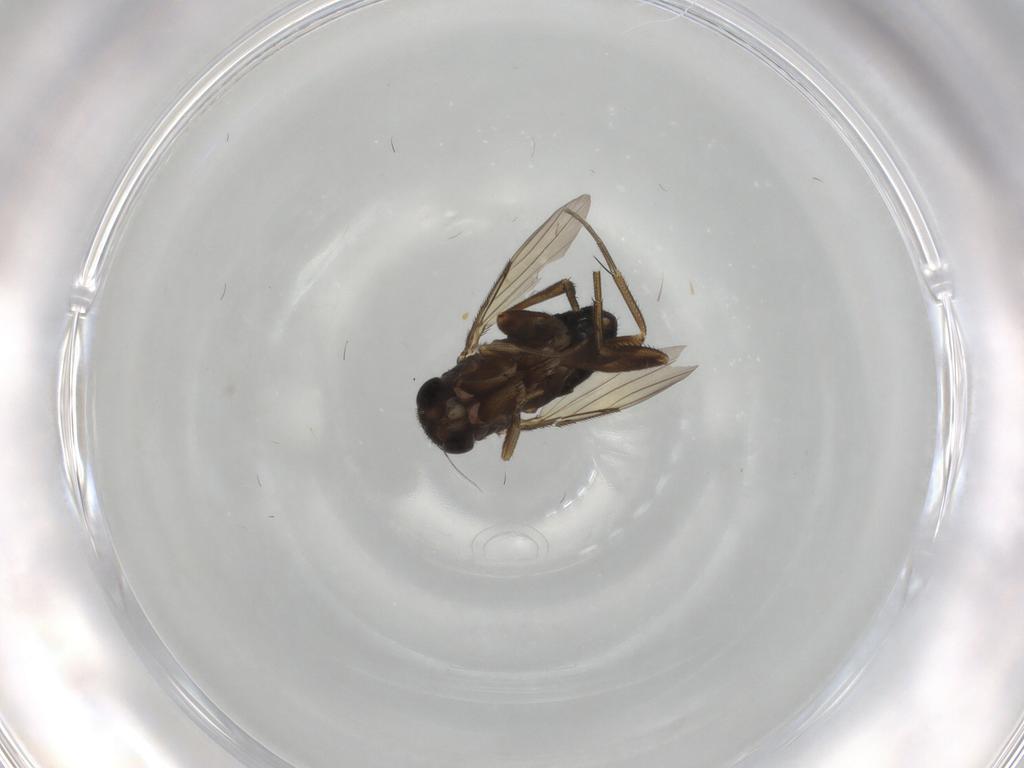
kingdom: Animalia
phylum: Arthropoda
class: Insecta
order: Diptera
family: Phoridae
